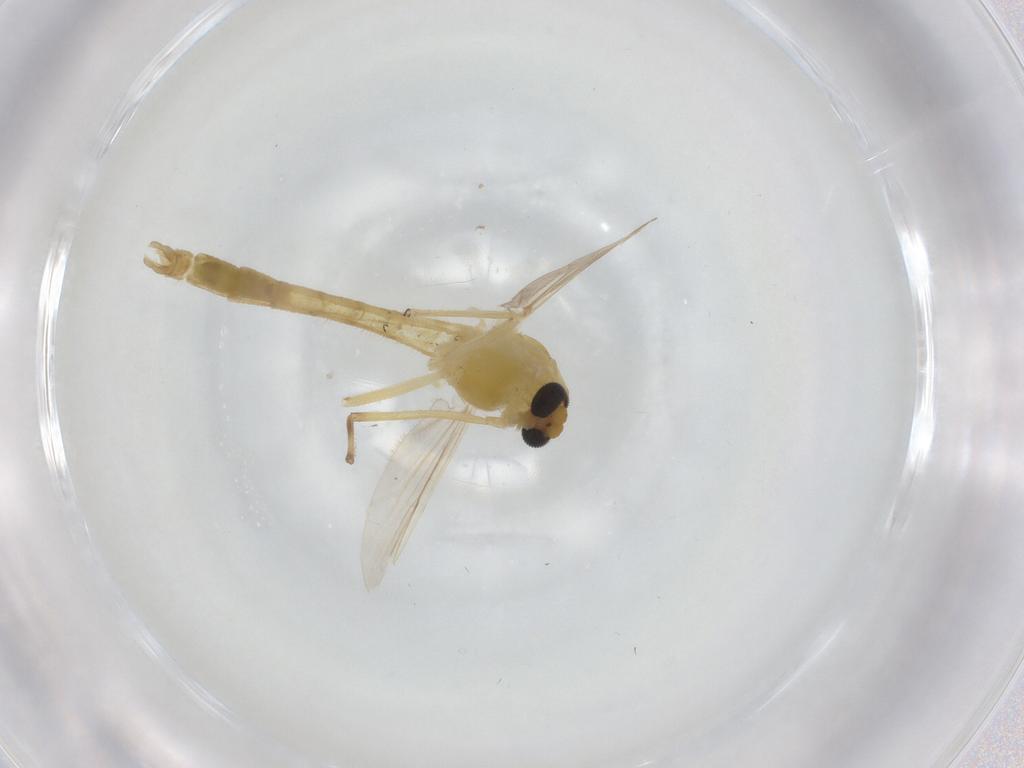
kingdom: Animalia
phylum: Arthropoda
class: Insecta
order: Diptera
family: Chironomidae
